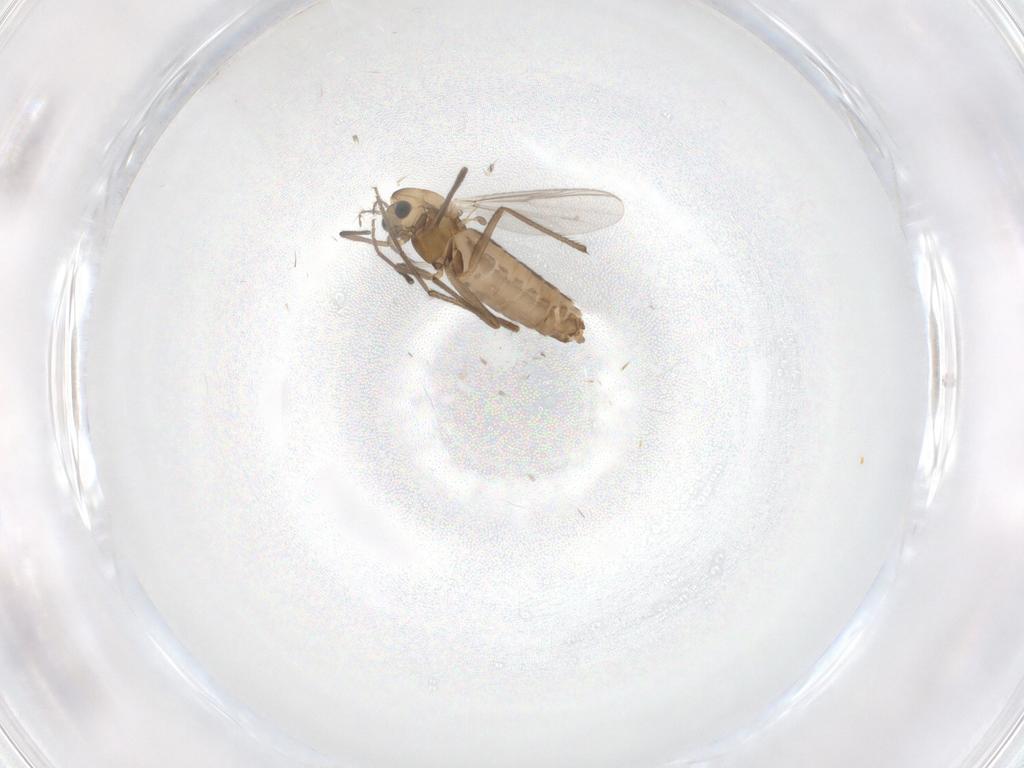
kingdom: Animalia
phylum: Arthropoda
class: Insecta
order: Diptera
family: Chironomidae
